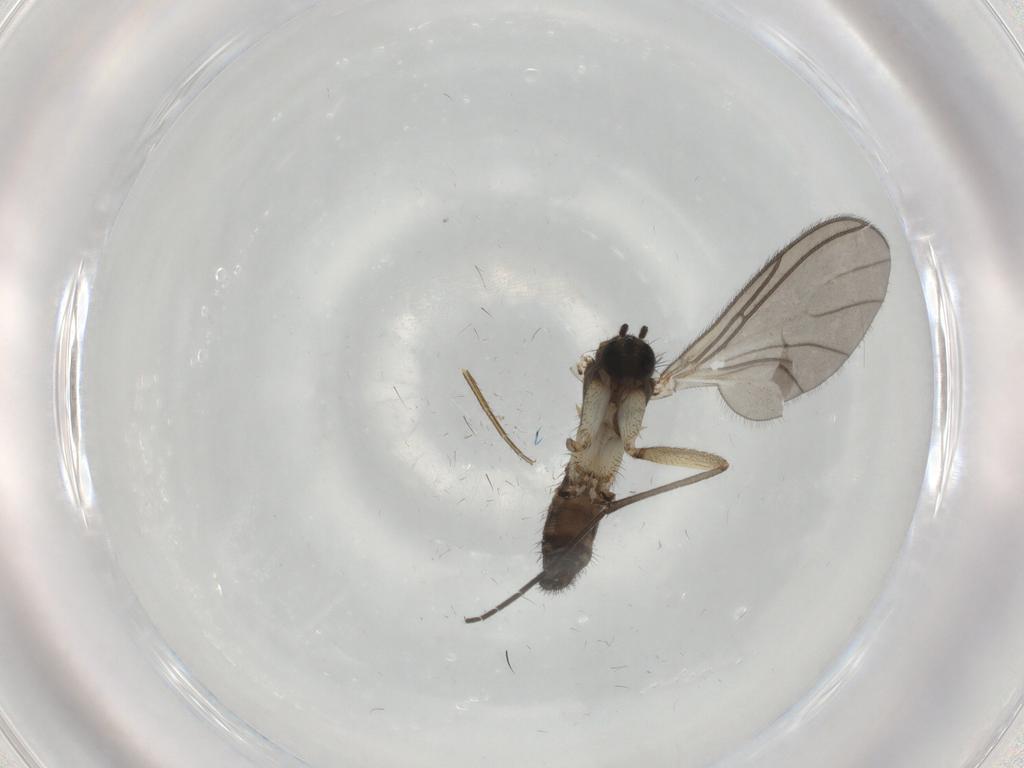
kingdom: Animalia
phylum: Arthropoda
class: Insecta
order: Diptera
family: Sciaridae
